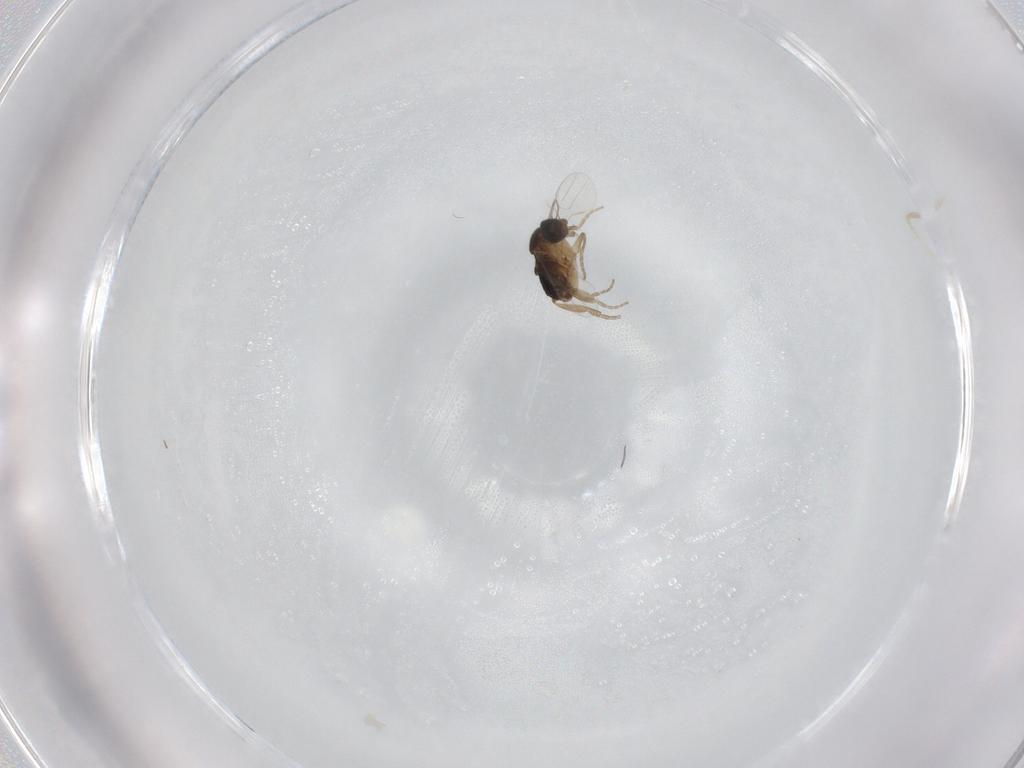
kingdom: Animalia
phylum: Arthropoda
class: Insecta
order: Diptera
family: Phoridae
